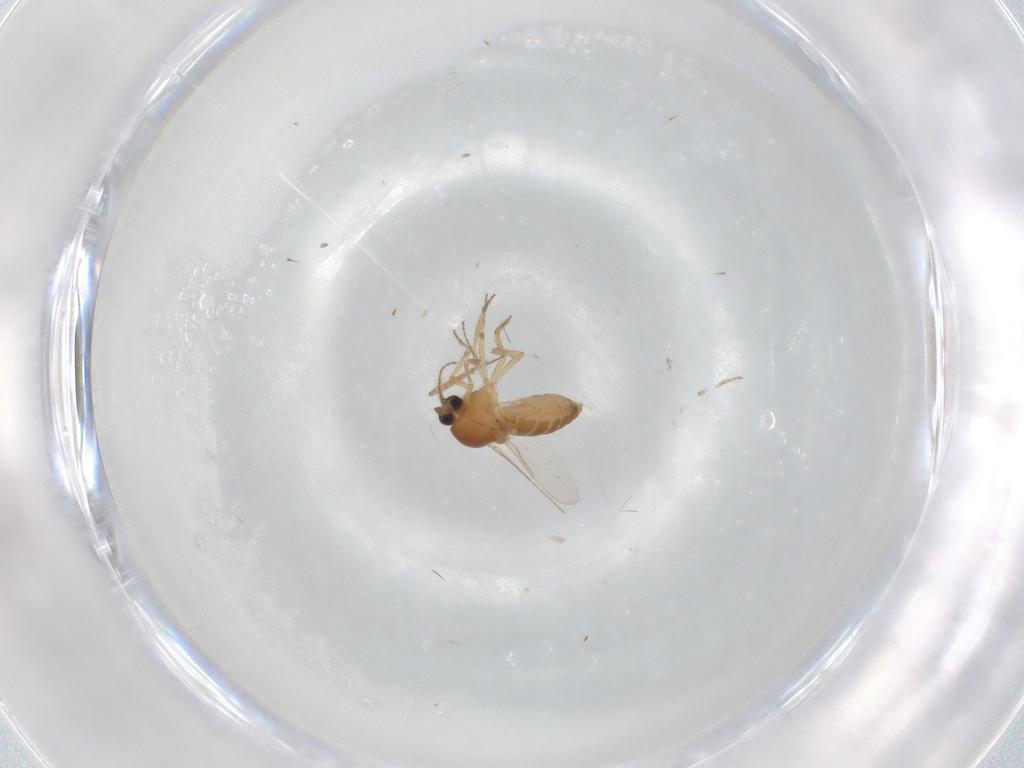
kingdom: Animalia
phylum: Arthropoda
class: Insecta
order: Diptera
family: Ceratopogonidae
